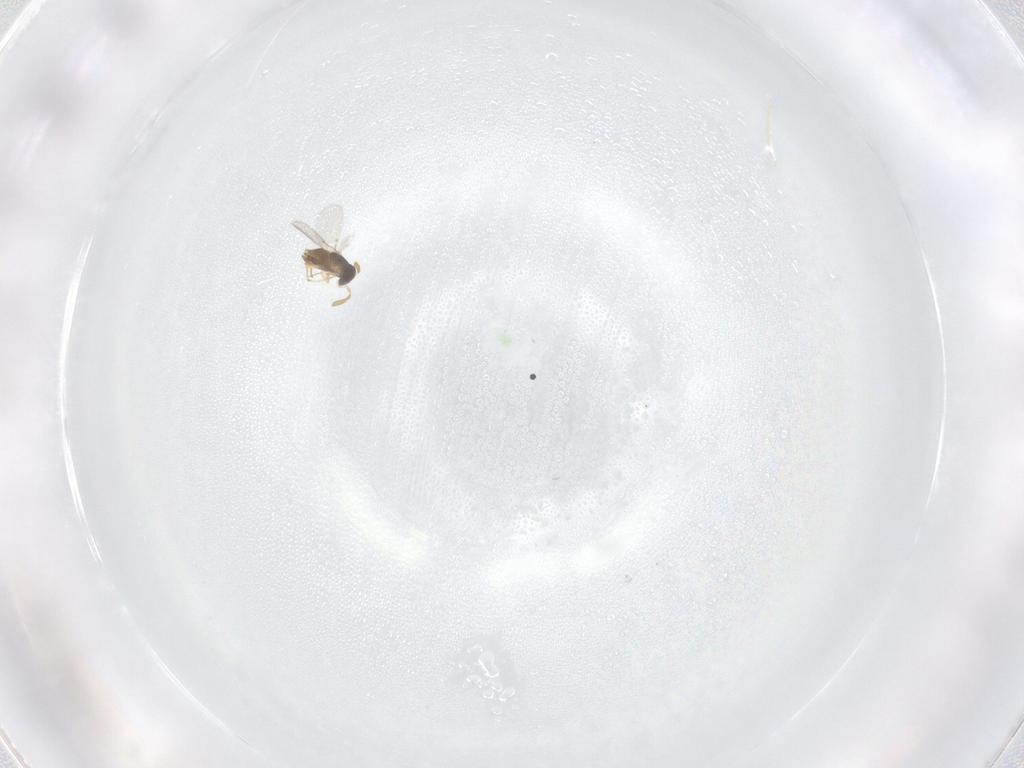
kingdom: Animalia
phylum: Arthropoda
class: Insecta
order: Hymenoptera
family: Encyrtidae
